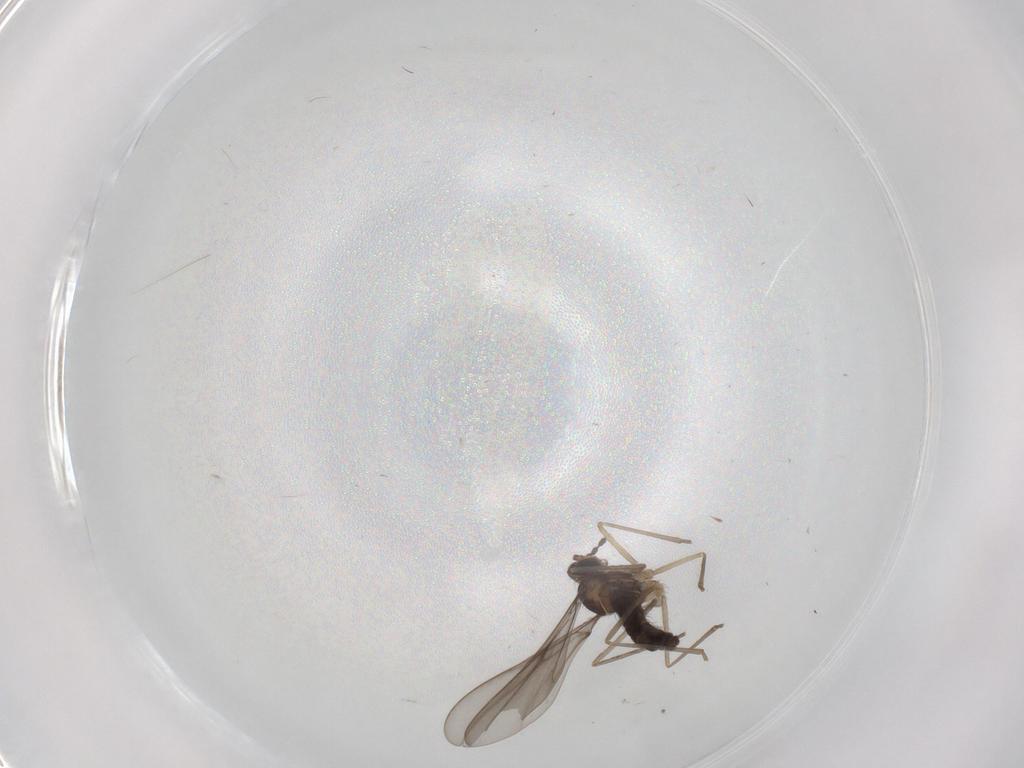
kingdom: Animalia
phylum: Arthropoda
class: Insecta
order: Diptera
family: Cecidomyiidae
